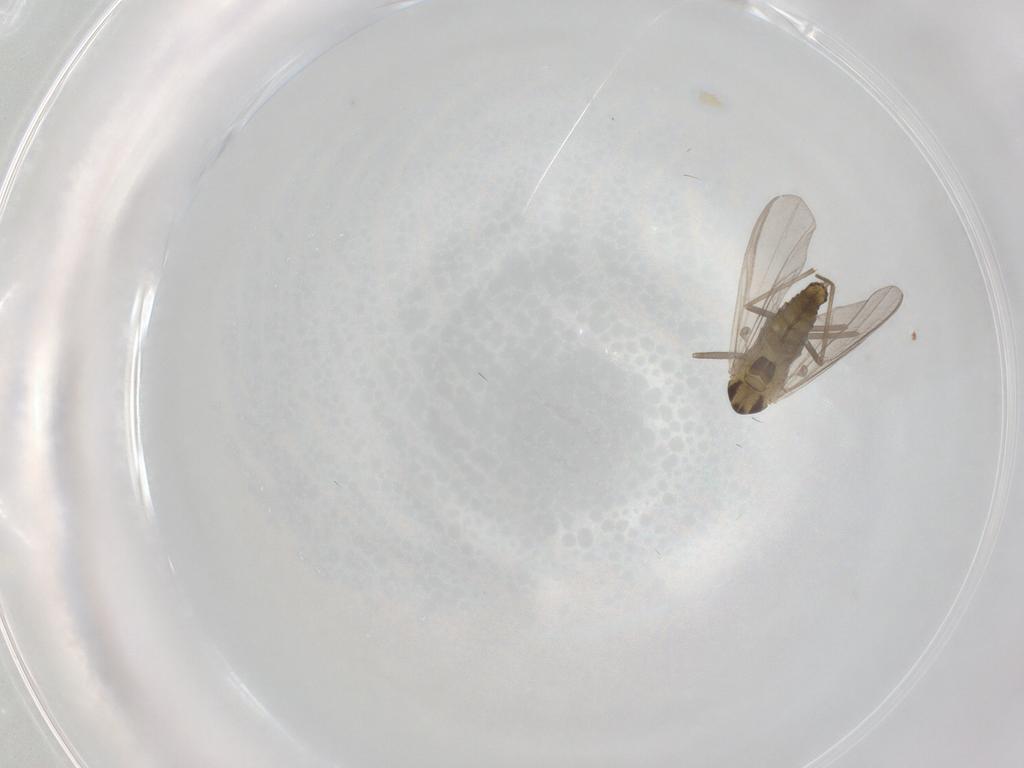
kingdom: Animalia
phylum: Arthropoda
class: Insecta
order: Diptera
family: Chironomidae
